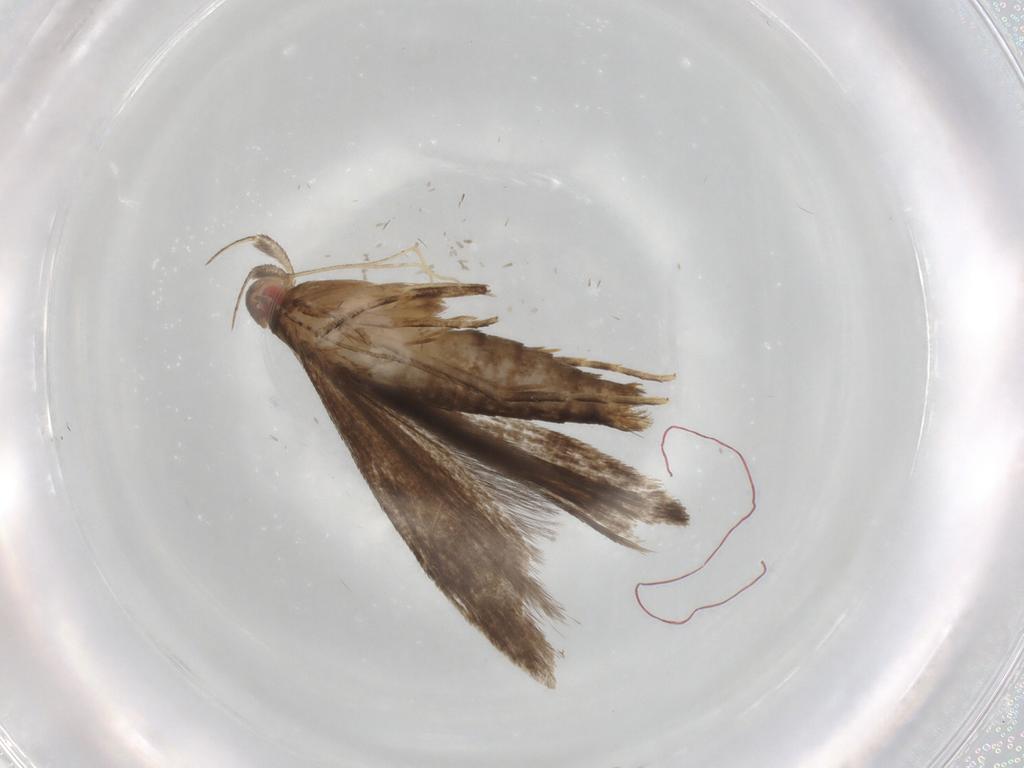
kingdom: Animalia
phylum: Arthropoda
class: Insecta
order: Lepidoptera
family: Gelechiidae
